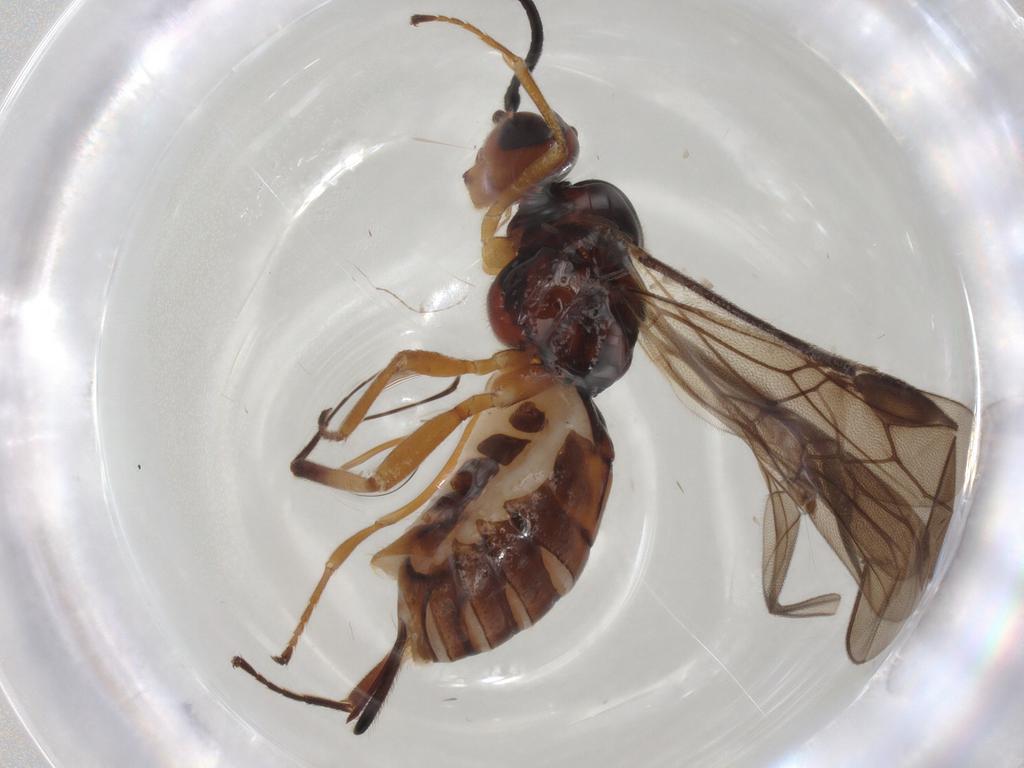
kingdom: Animalia
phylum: Arthropoda
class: Insecta
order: Hymenoptera
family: Braconidae
